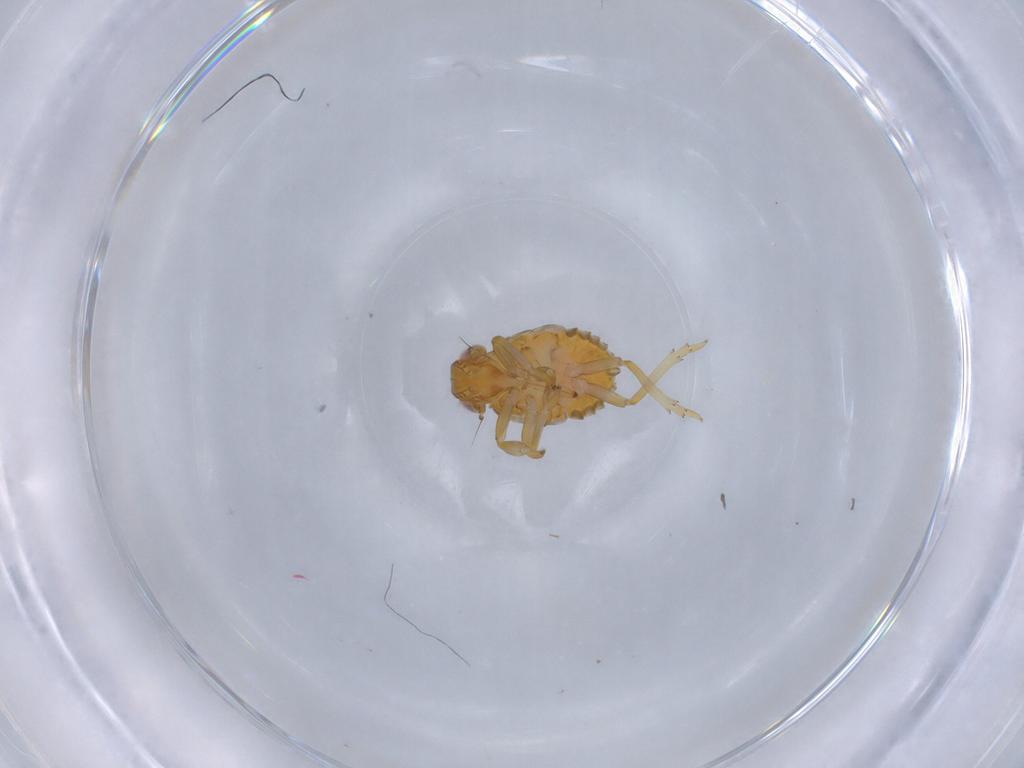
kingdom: Animalia
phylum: Arthropoda
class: Insecta
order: Hemiptera
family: Issidae
